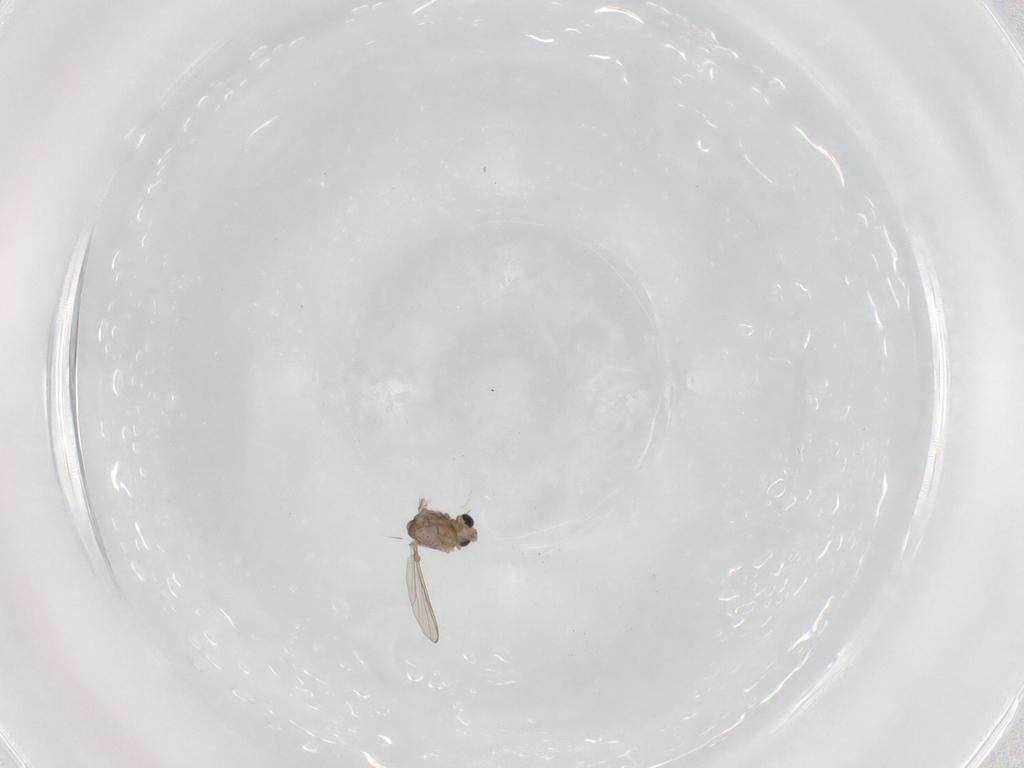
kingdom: Animalia
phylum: Arthropoda
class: Insecta
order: Diptera
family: Chironomidae
